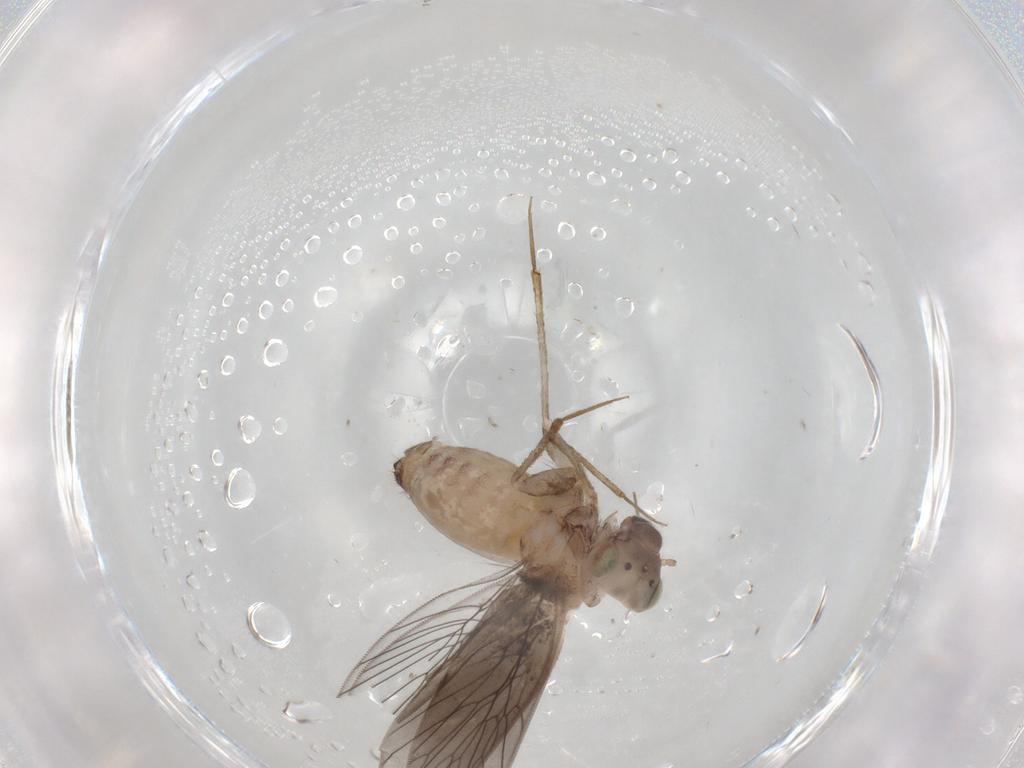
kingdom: Animalia
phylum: Arthropoda
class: Insecta
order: Psocodea
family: Lepidopsocidae
